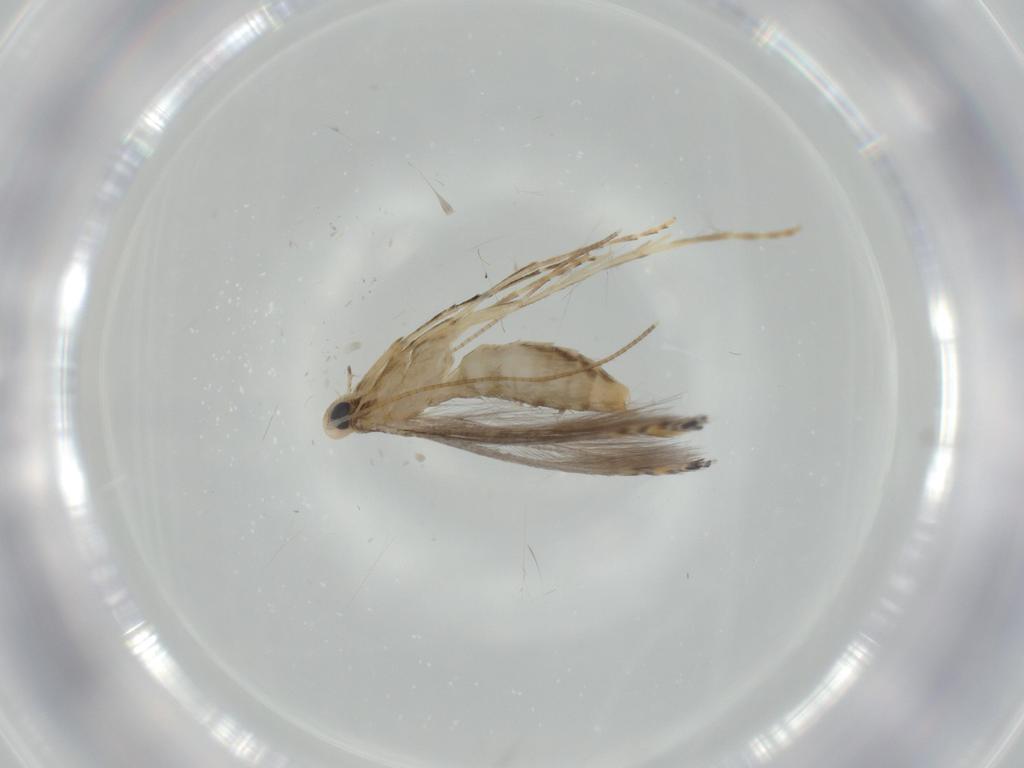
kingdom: Animalia
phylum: Arthropoda
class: Insecta
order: Lepidoptera
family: Gracillariidae
